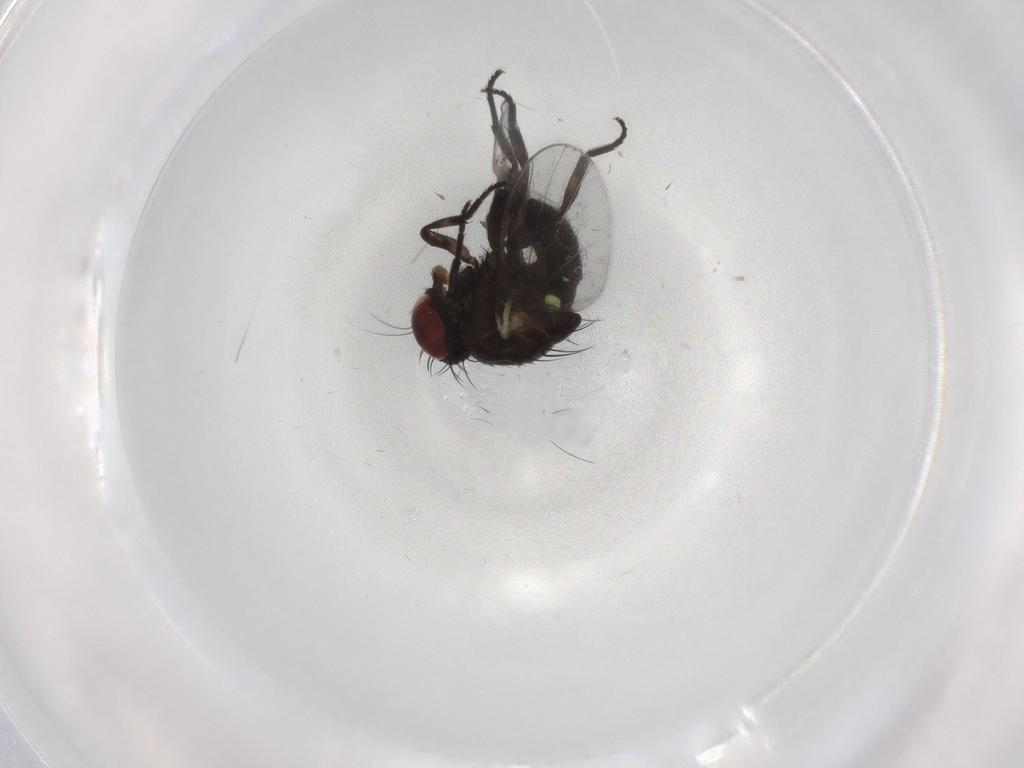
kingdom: Animalia
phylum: Arthropoda
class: Insecta
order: Diptera
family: Agromyzidae
